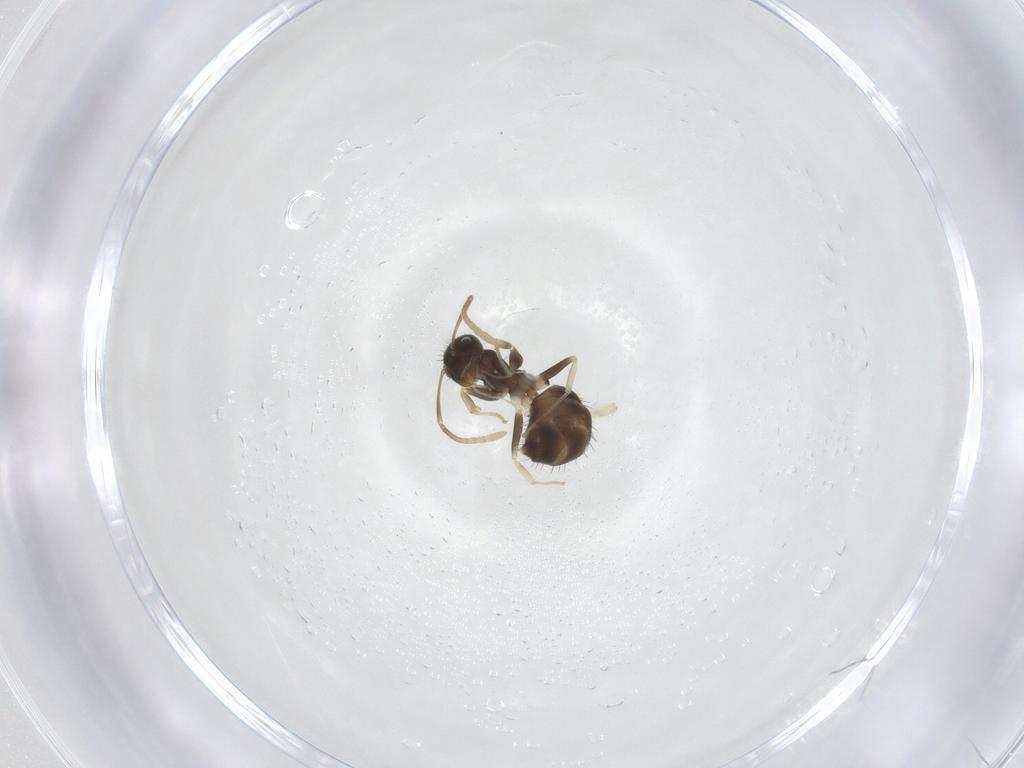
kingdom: Animalia
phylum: Arthropoda
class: Insecta
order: Hymenoptera
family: Formicidae
